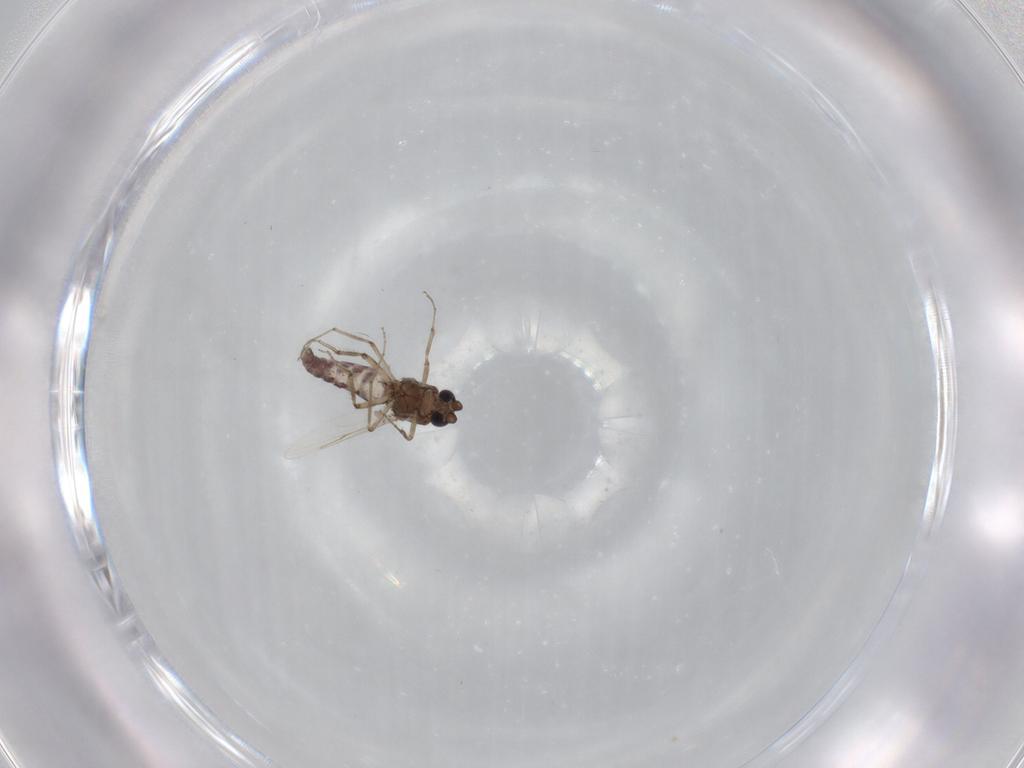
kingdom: Animalia
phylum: Arthropoda
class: Insecta
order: Diptera
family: Ceratopogonidae
